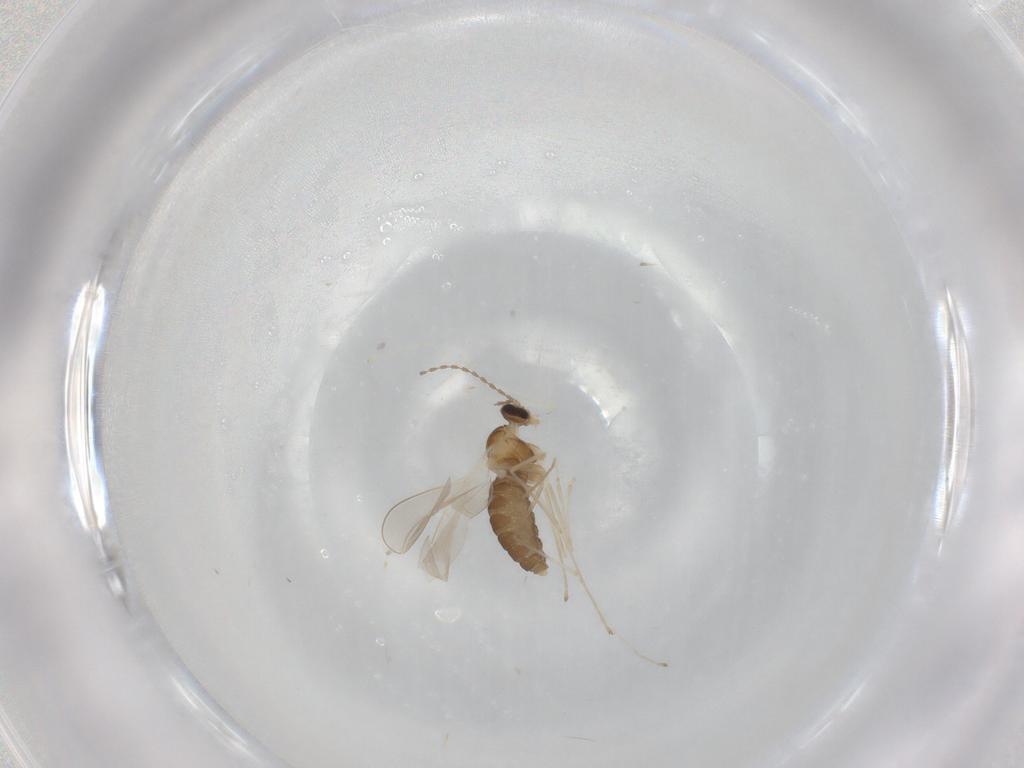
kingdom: Animalia
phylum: Arthropoda
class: Insecta
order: Diptera
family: Cecidomyiidae
